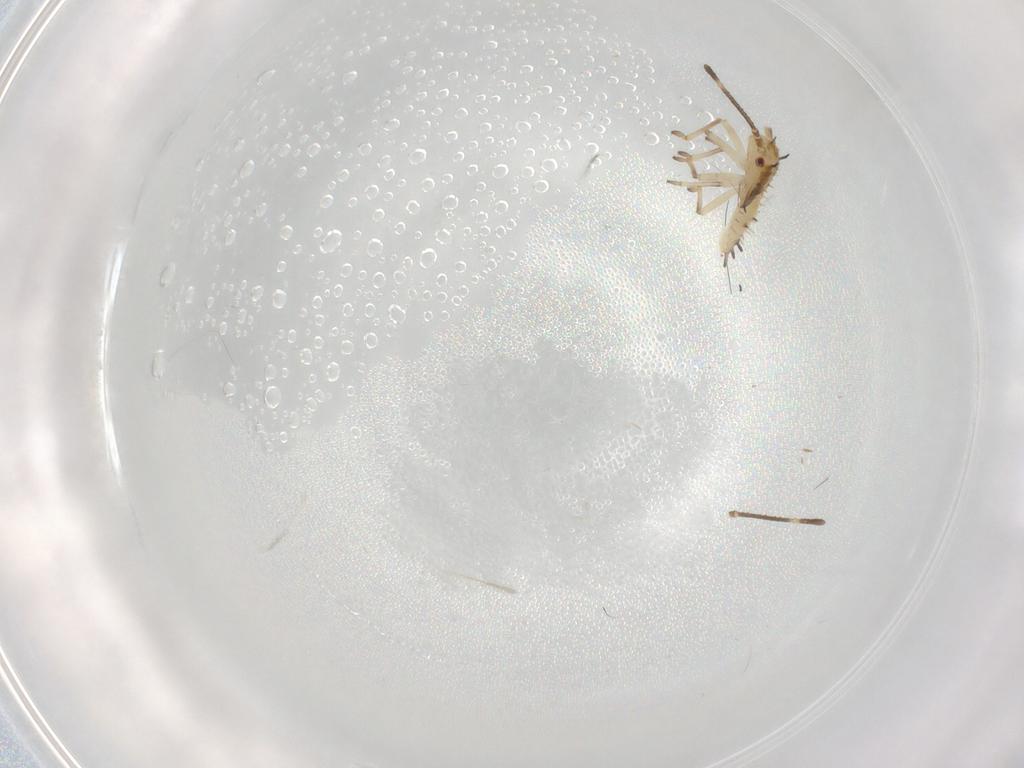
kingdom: Animalia
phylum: Arthropoda
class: Insecta
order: Hemiptera
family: Tingidae
